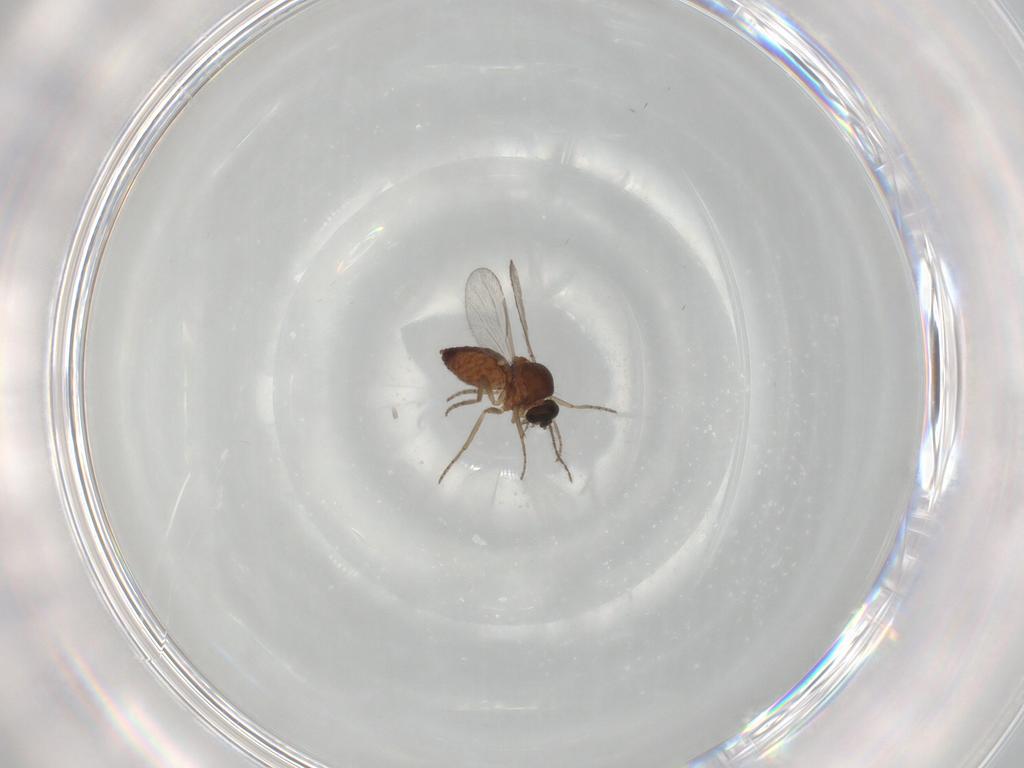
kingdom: Animalia
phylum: Arthropoda
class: Insecta
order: Diptera
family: Ceratopogonidae
